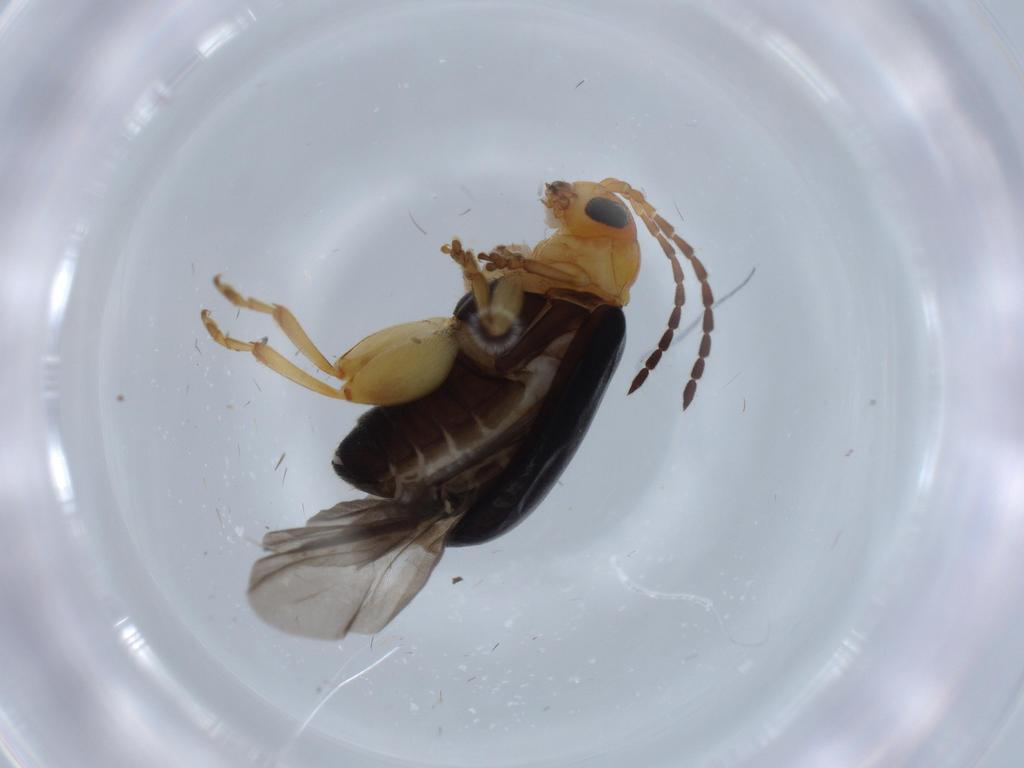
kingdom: Animalia
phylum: Arthropoda
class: Insecta
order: Coleoptera
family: Chrysomelidae
